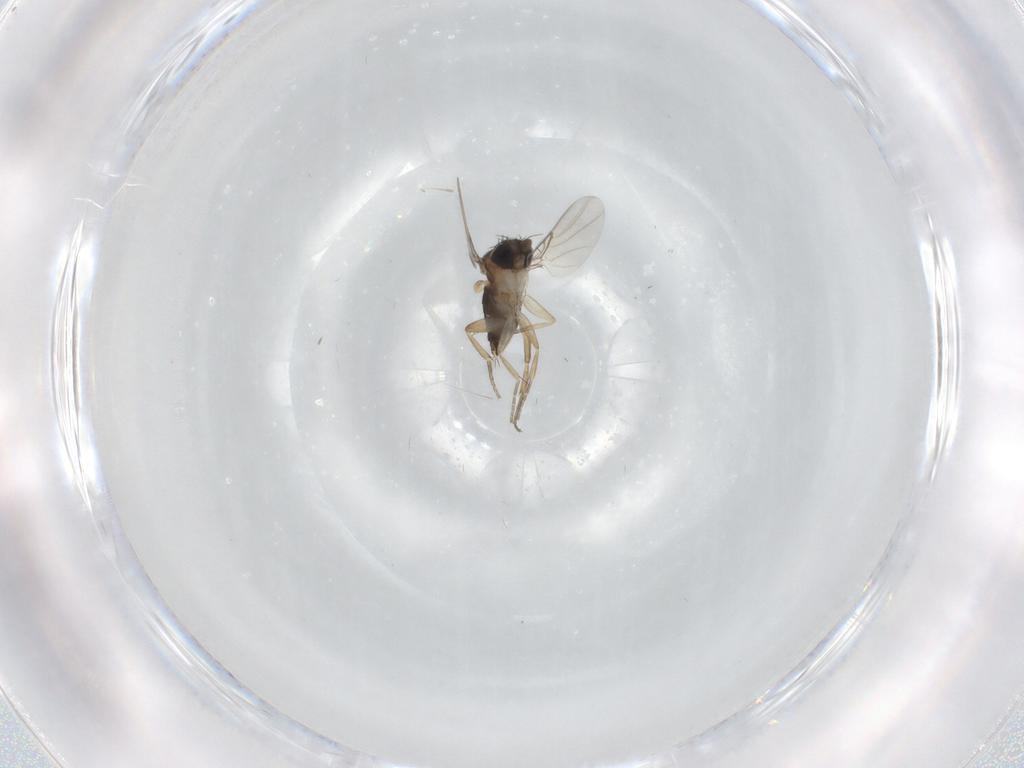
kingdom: Animalia
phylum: Arthropoda
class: Insecta
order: Diptera
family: Phoridae
